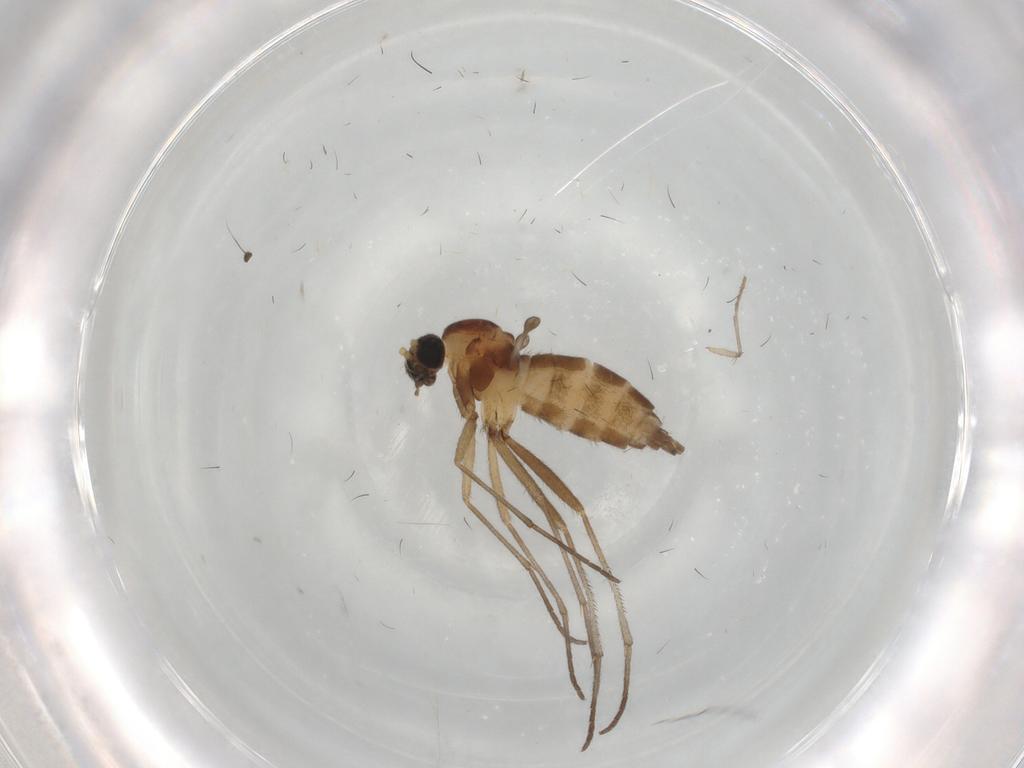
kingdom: Animalia
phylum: Arthropoda
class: Insecta
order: Diptera
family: Sciaridae
